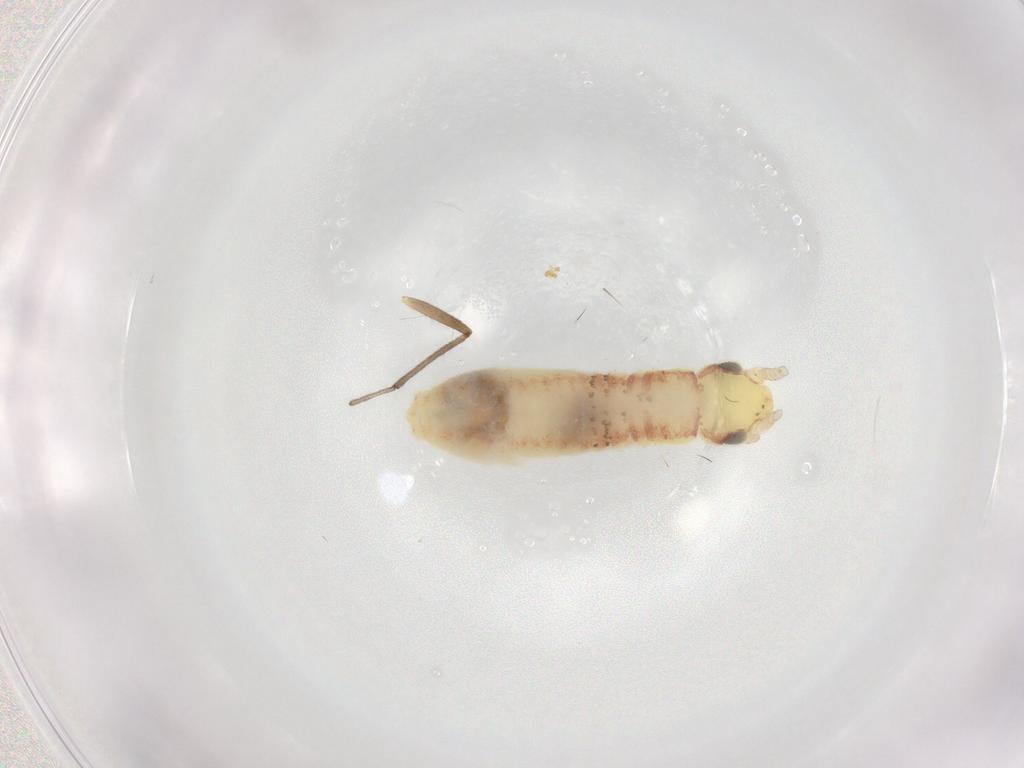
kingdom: Animalia
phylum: Arthropoda
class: Insecta
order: Orthoptera
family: Gryllidae
